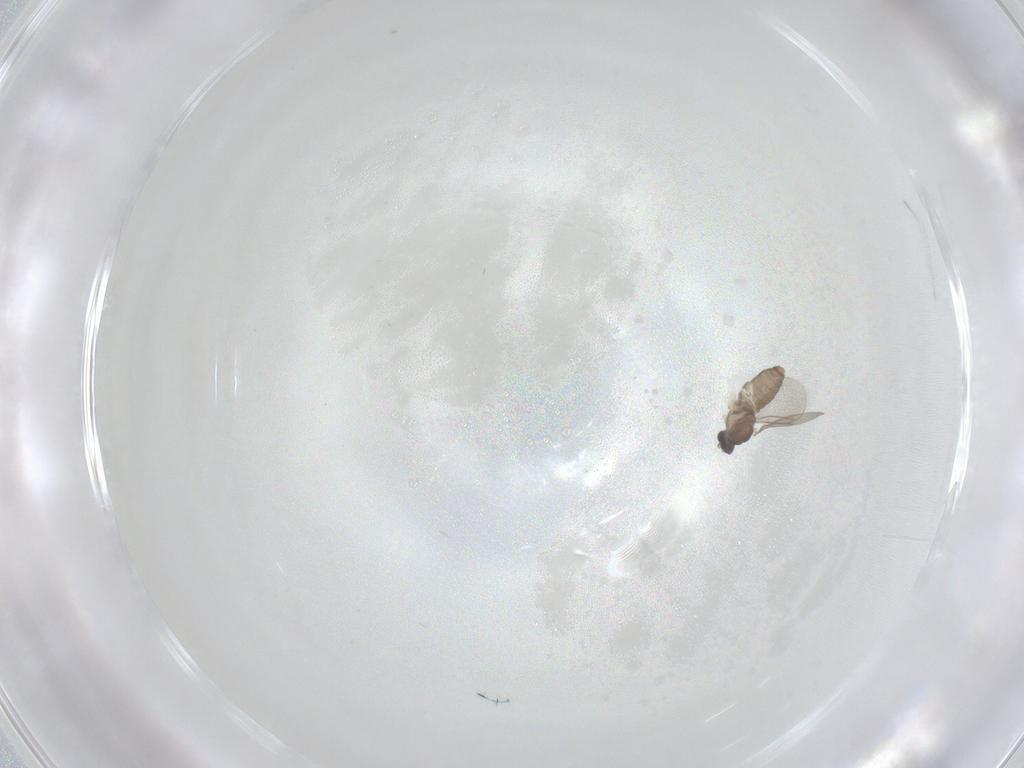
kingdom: Animalia
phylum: Arthropoda
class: Insecta
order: Diptera
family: Cecidomyiidae
